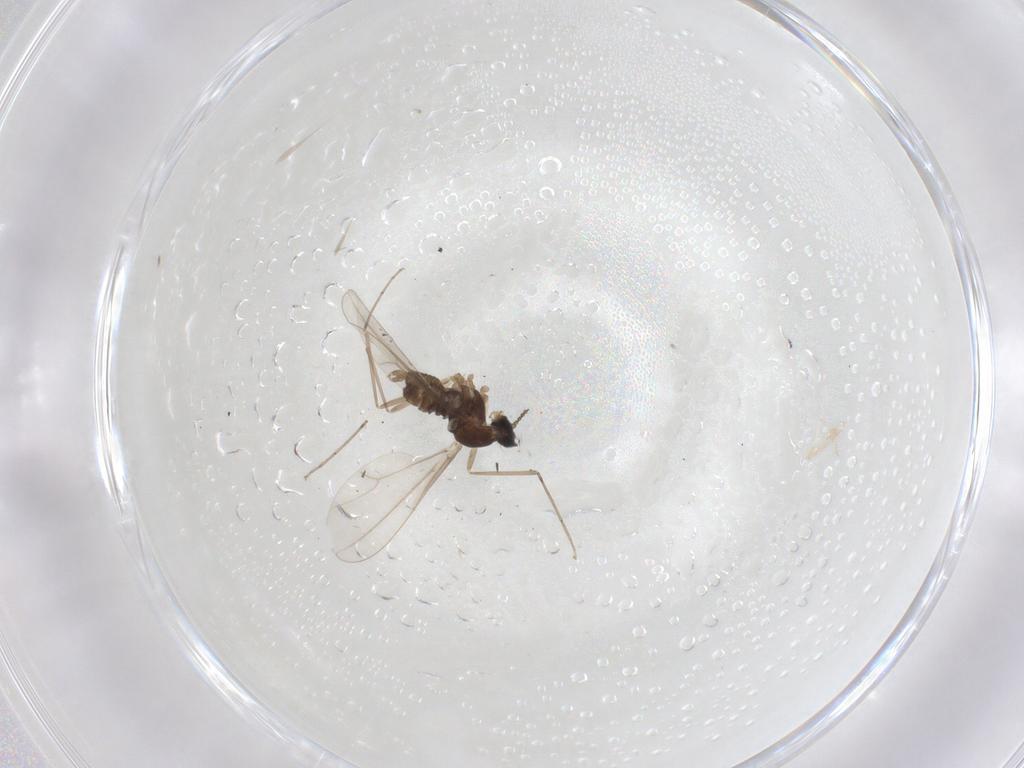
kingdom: Animalia
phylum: Arthropoda
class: Insecta
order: Diptera
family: Cecidomyiidae
